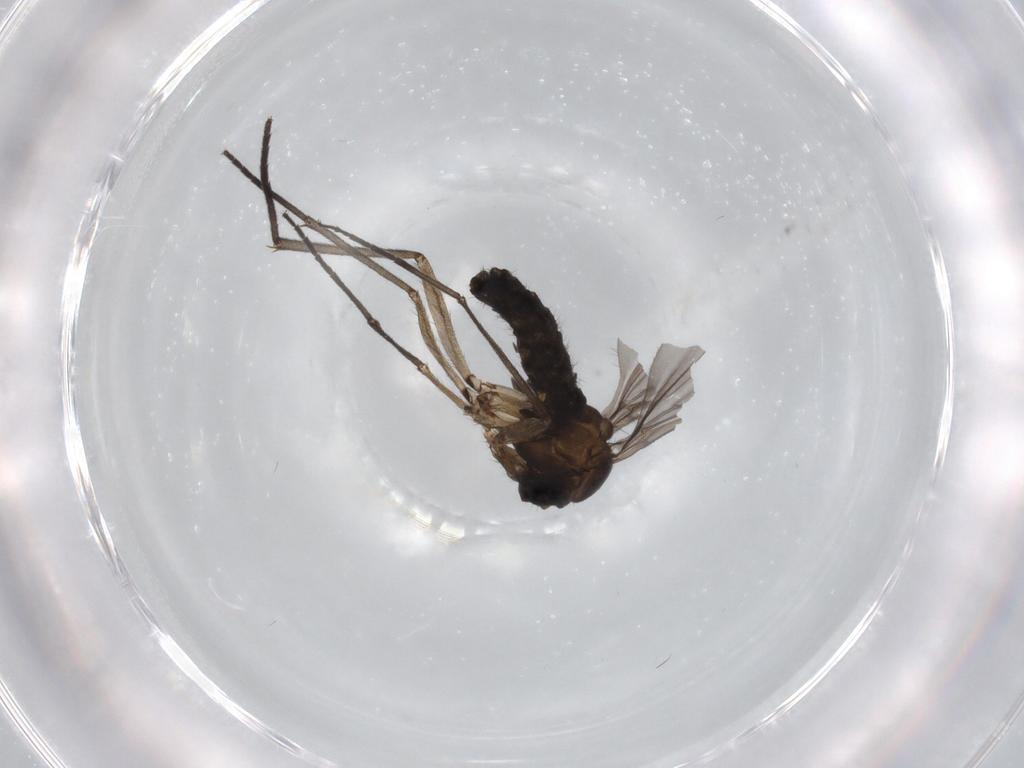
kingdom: Animalia
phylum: Arthropoda
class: Insecta
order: Diptera
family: Sciaridae
